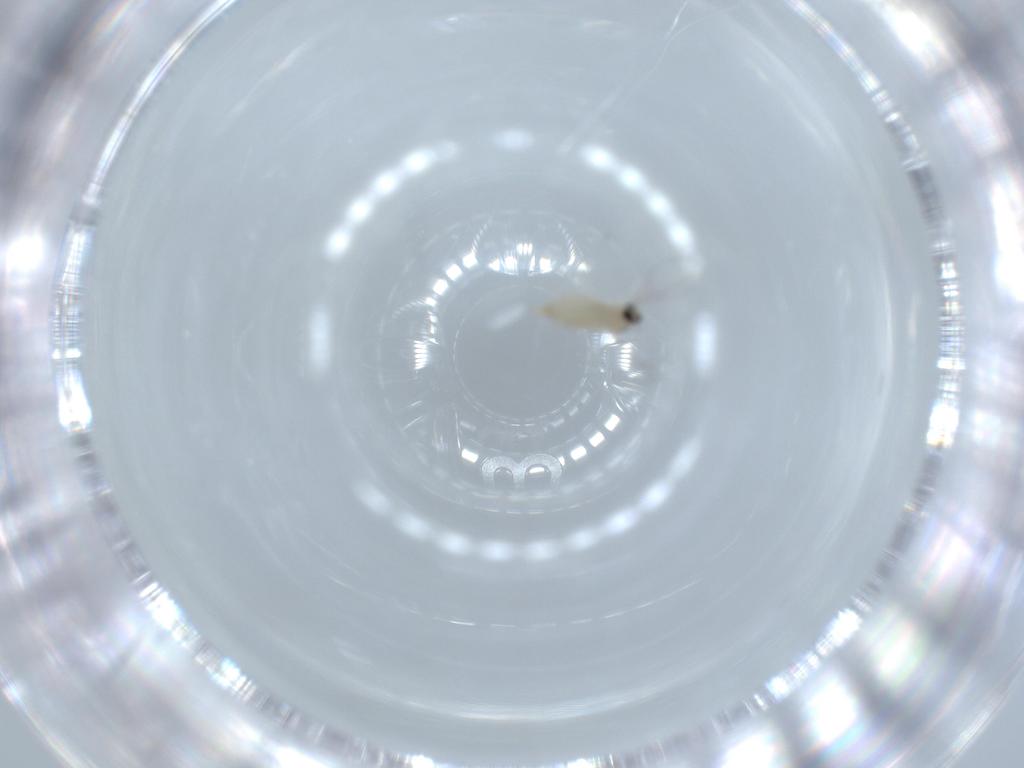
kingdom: Animalia
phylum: Arthropoda
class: Insecta
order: Diptera
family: Cecidomyiidae
